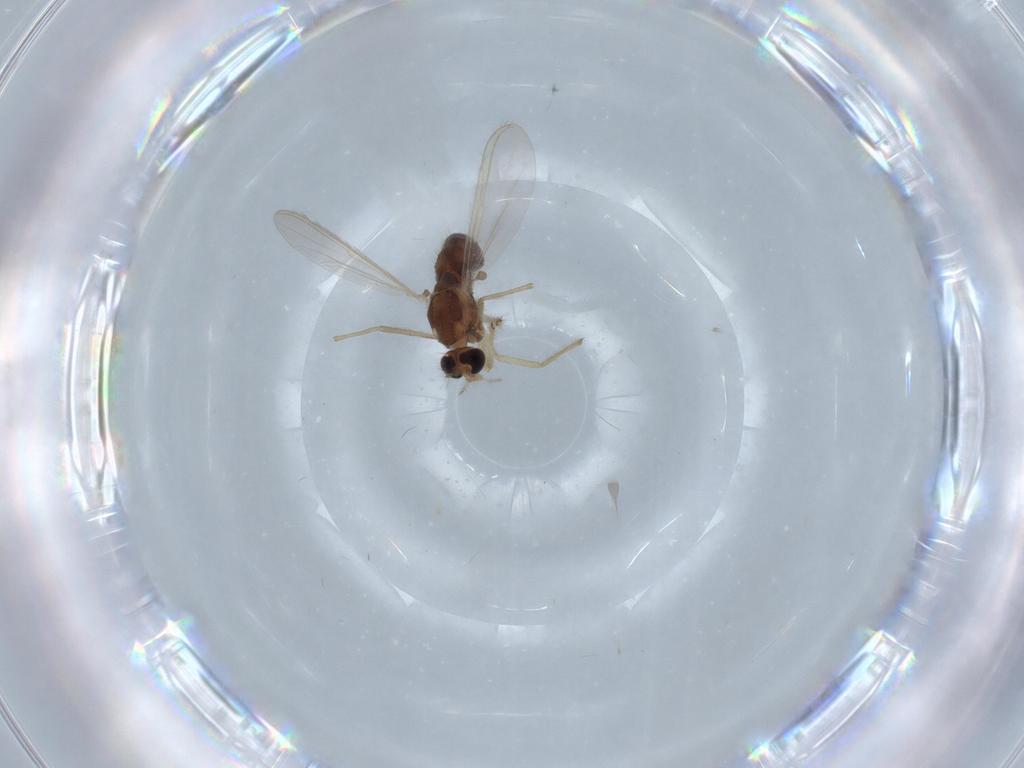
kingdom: Animalia
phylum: Arthropoda
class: Insecta
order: Diptera
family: Chironomidae
